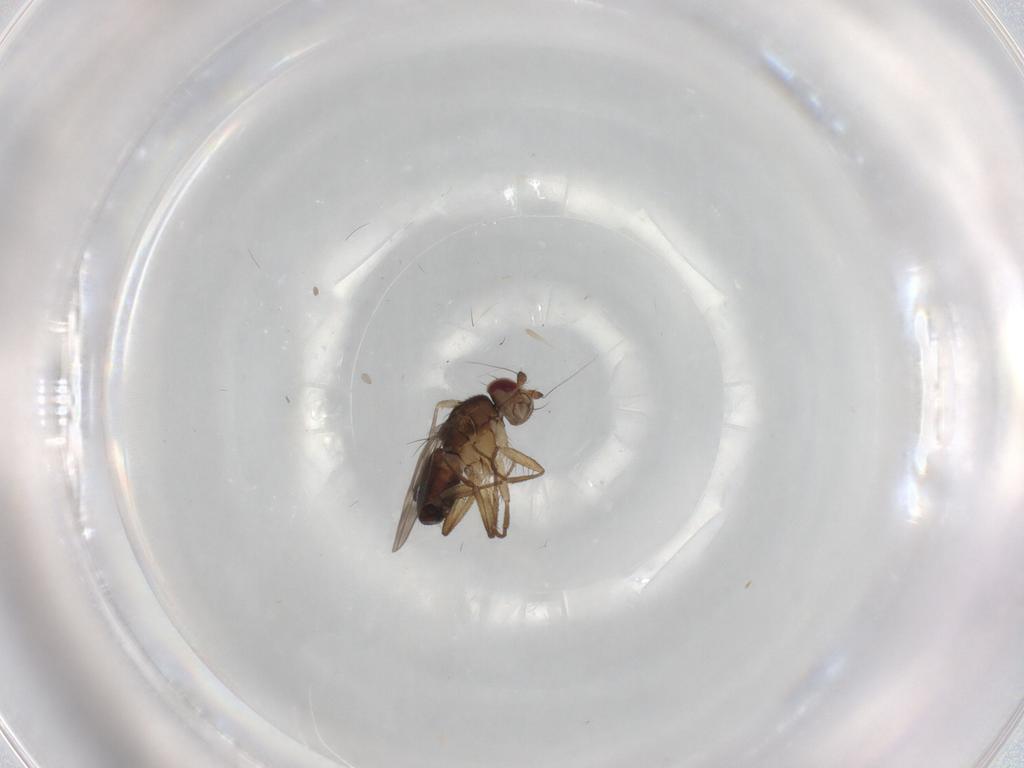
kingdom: Animalia
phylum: Arthropoda
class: Insecta
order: Diptera
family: Sphaeroceridae
